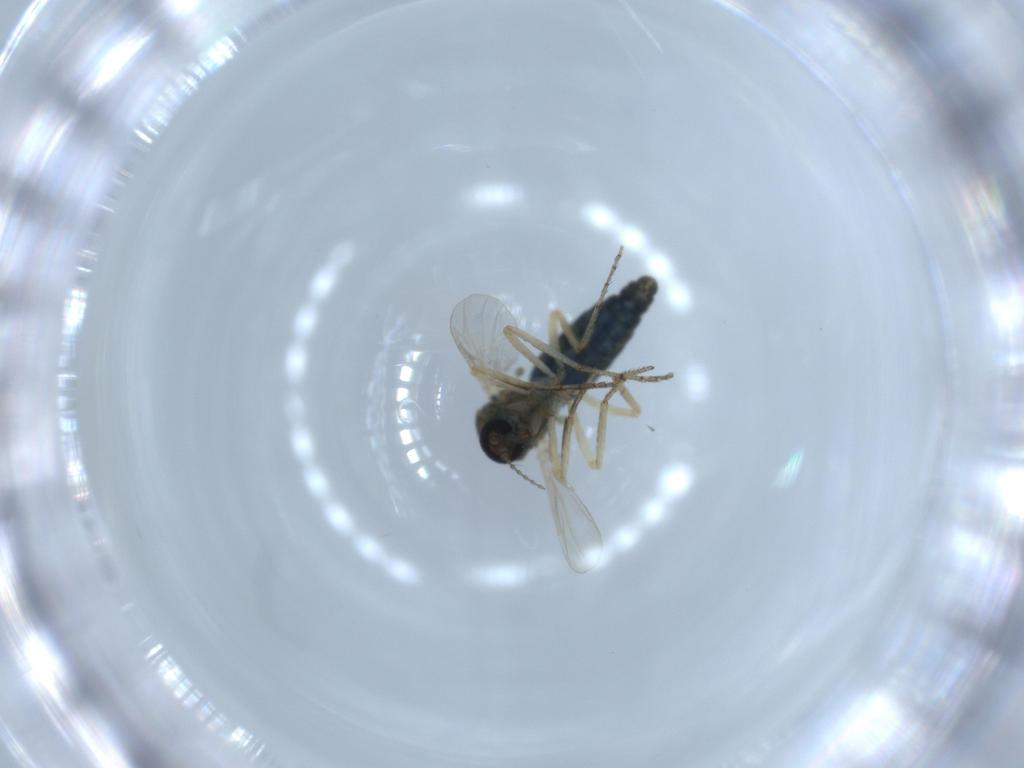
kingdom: Animalia
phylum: Arthropoda
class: Insecta
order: Diptera
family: Ceratopogonidae
